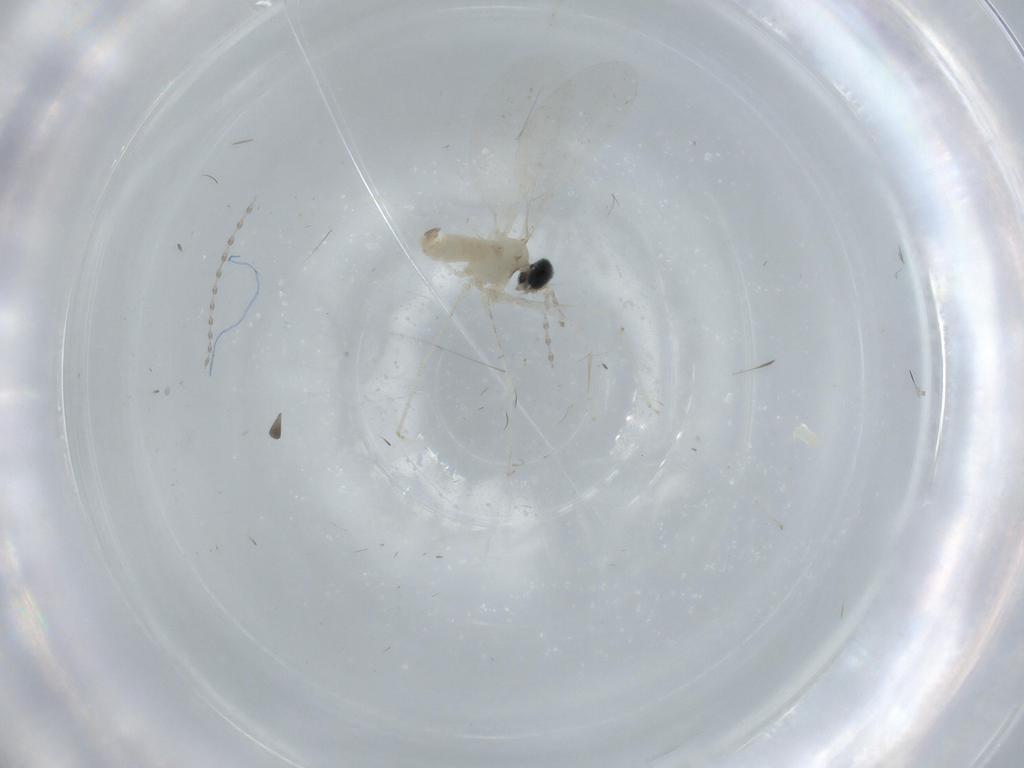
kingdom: Animalia
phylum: Arthropoda
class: Insecta
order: Diptera
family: Cecidomyiidae
